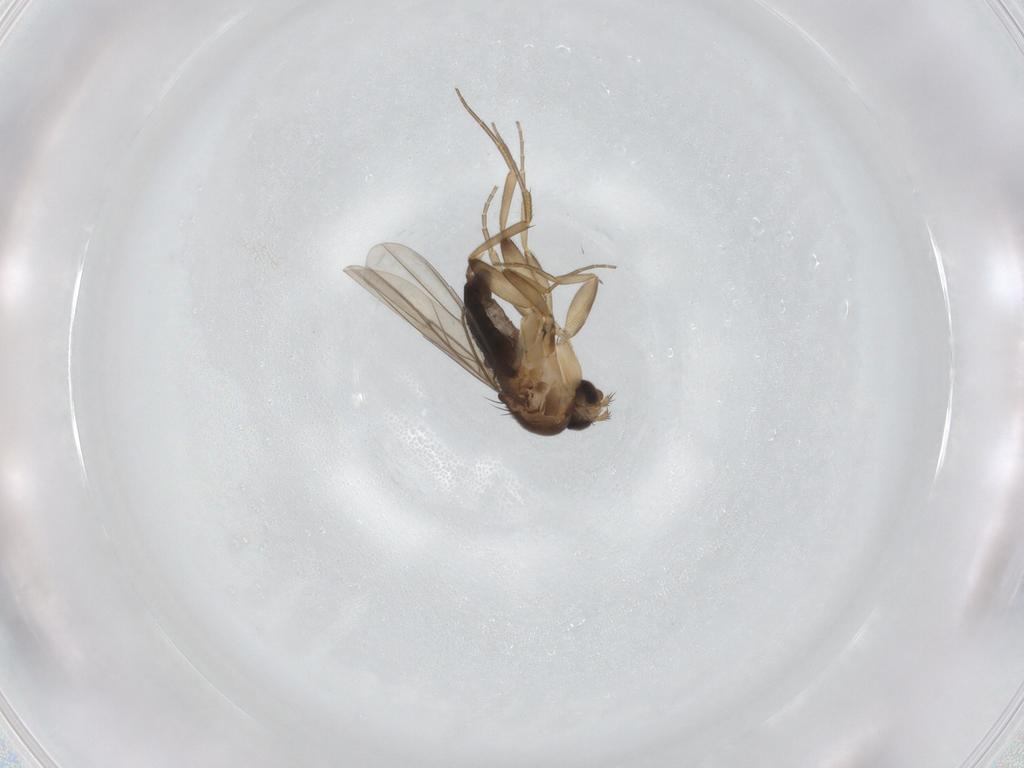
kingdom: Animalia
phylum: Arthropoda
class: Insecta
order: Diptera
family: Phoridae
